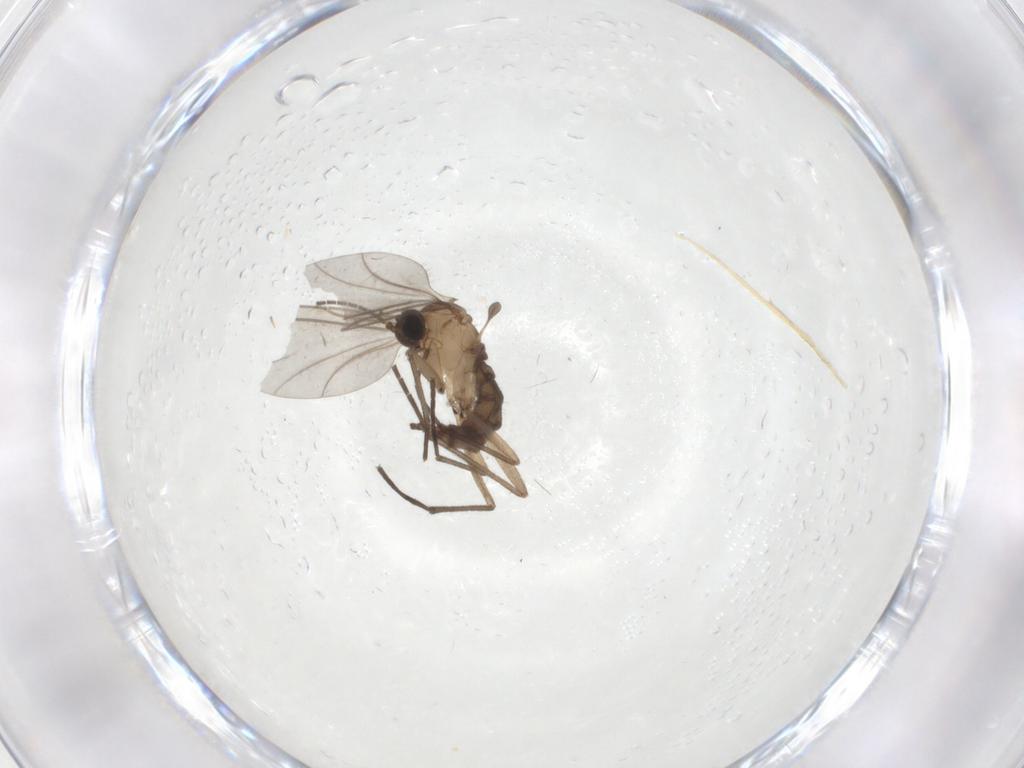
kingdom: Animalia
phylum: Arthropoda
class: Insecta
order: Diptera
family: Sciaridae
